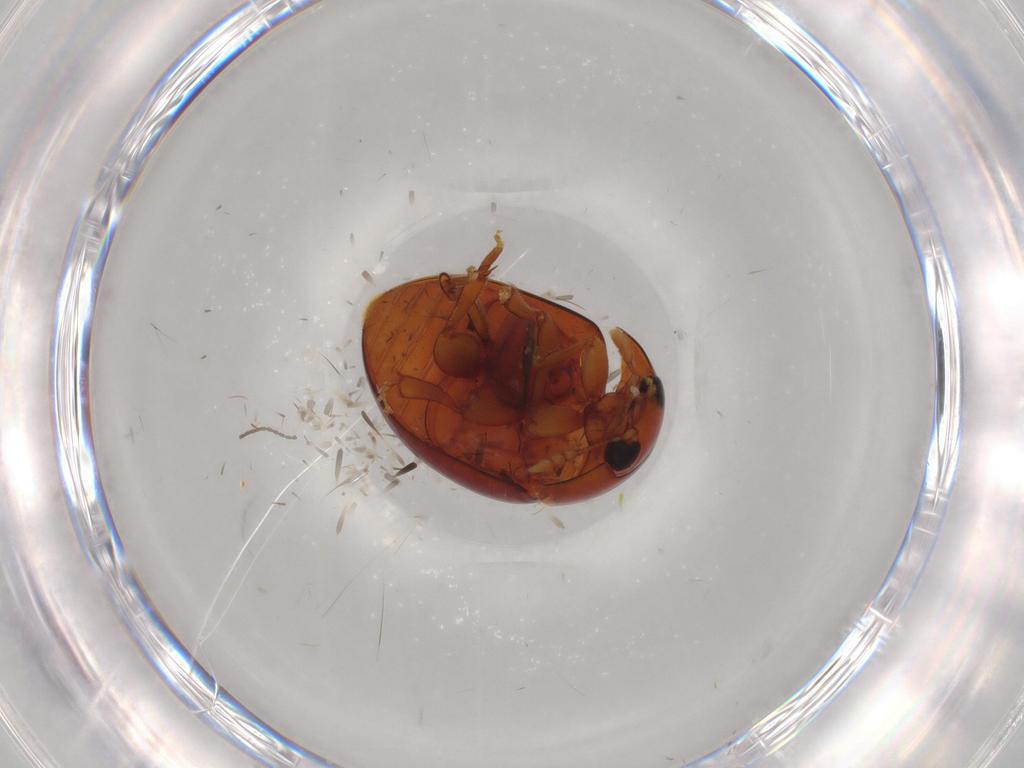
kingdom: Animalia
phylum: Arthropoda
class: Insecta
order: Coleoptera
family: Phalacridae
